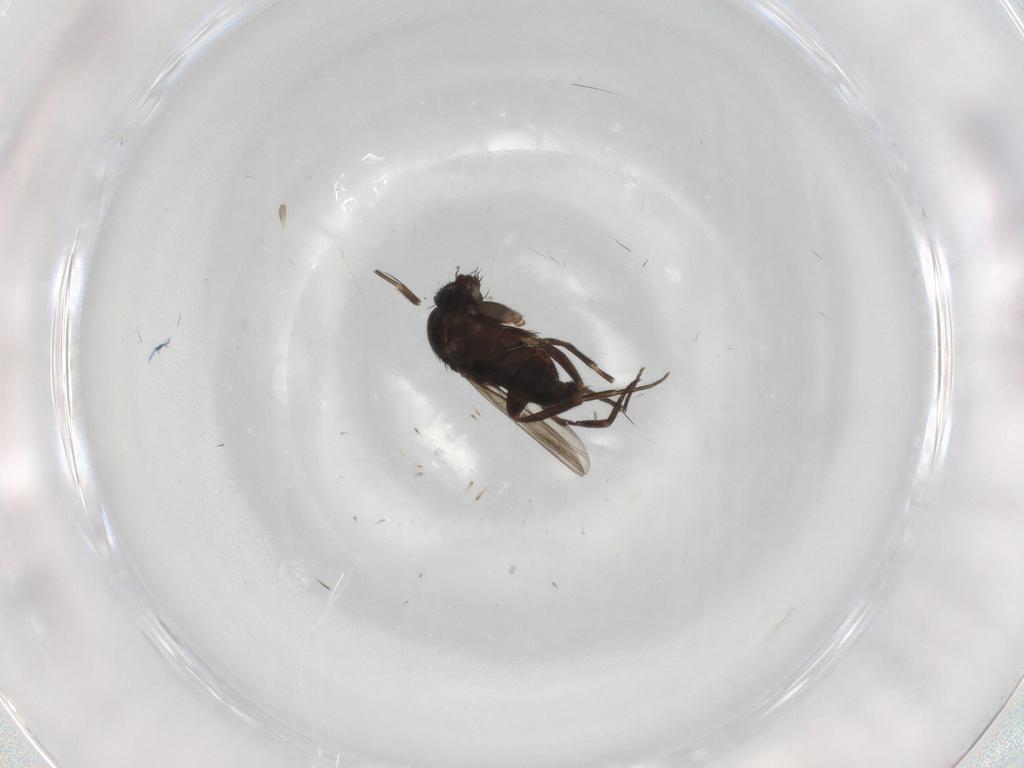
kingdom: Animalia
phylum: Arthropoda
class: Insecta
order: Diptera
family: Phoridae
